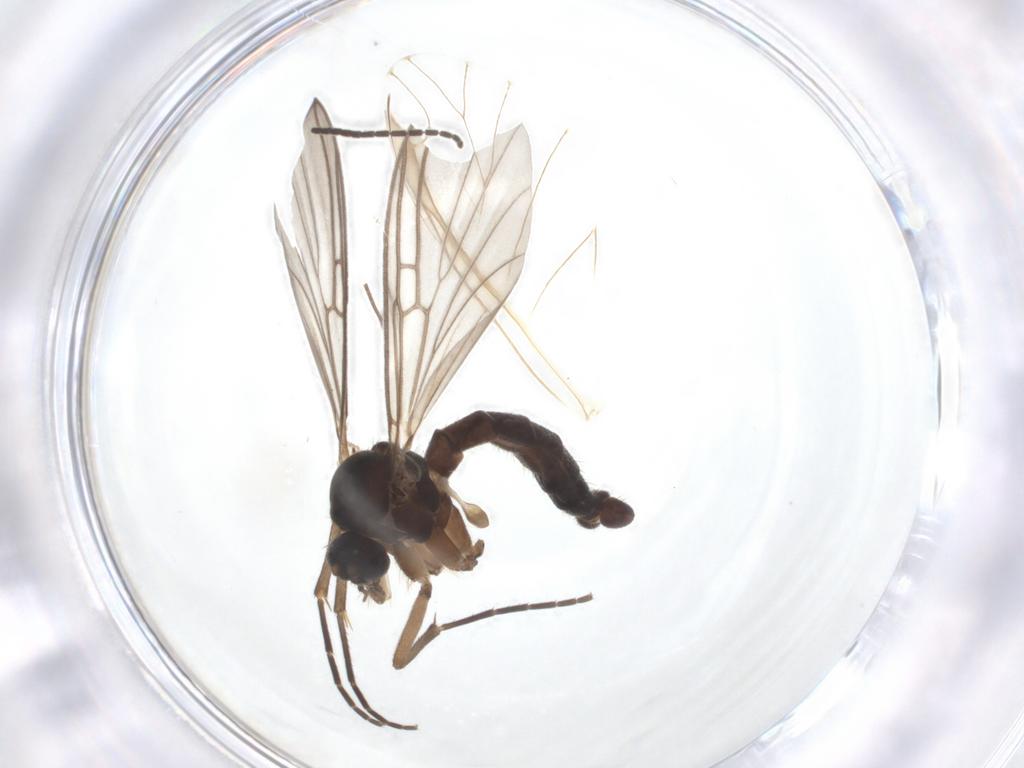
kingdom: Animalia
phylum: Arthropoda
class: Insecta
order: Diptera
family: Mycetophilidae
